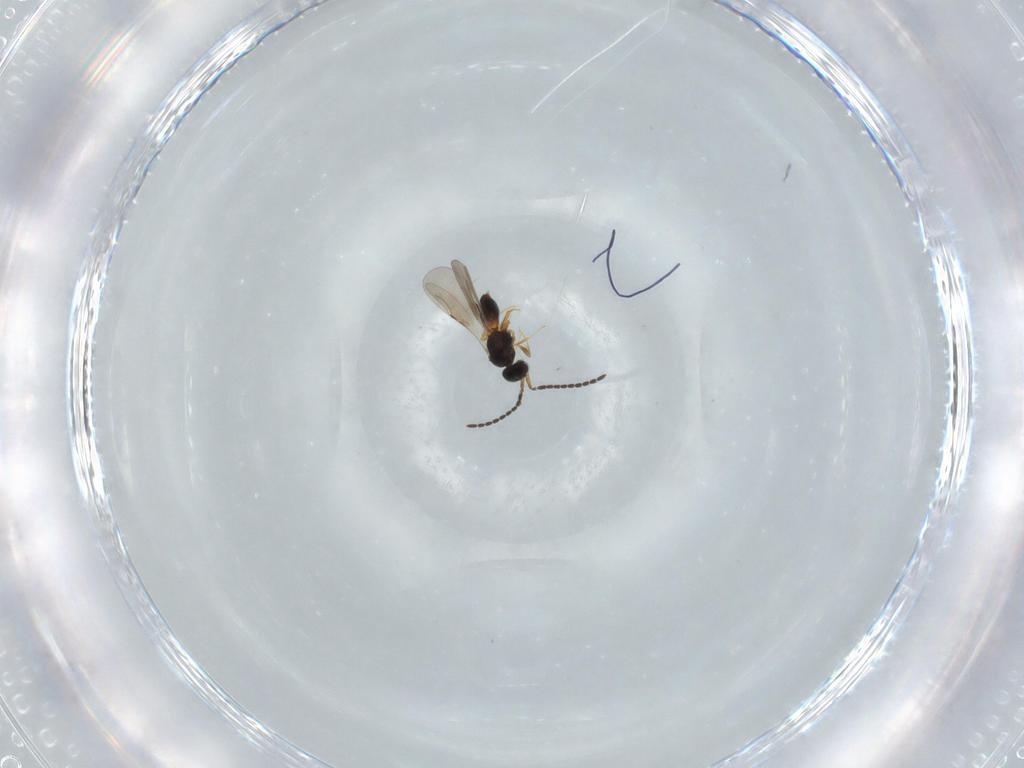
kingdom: Animalia
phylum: Arthropoda
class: Insecta
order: Hymenoptera
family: Ceraphronidae
